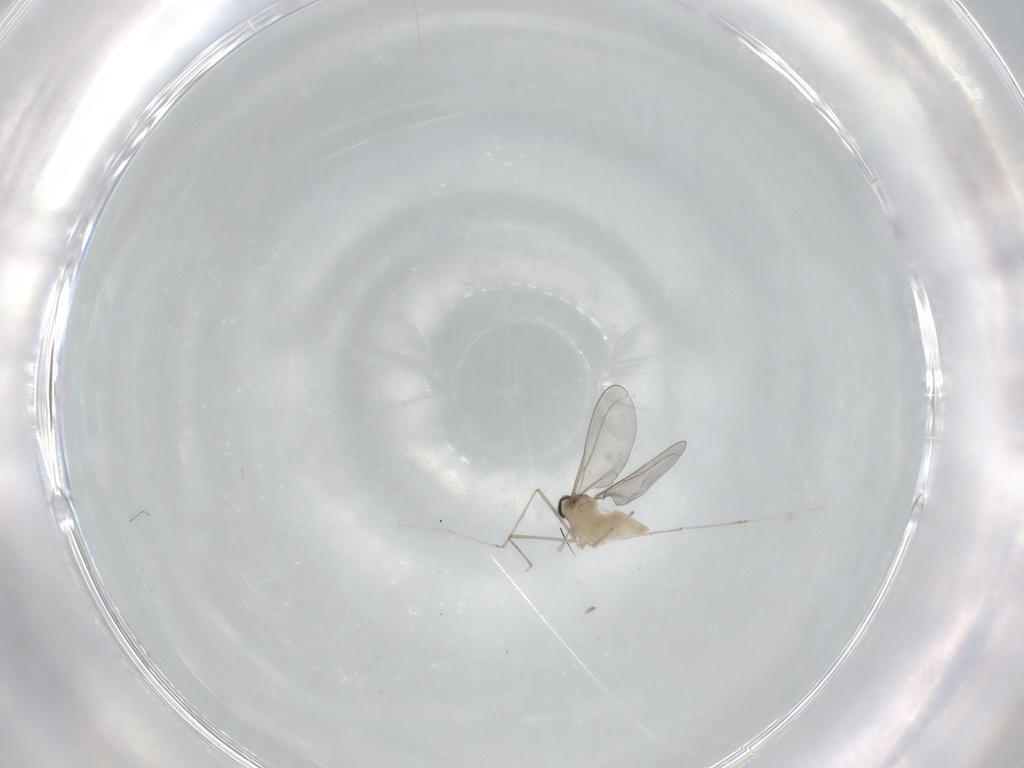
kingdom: Animalia
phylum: Arthropoda
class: Insecta
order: Diptera
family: Cecidomyiidae
